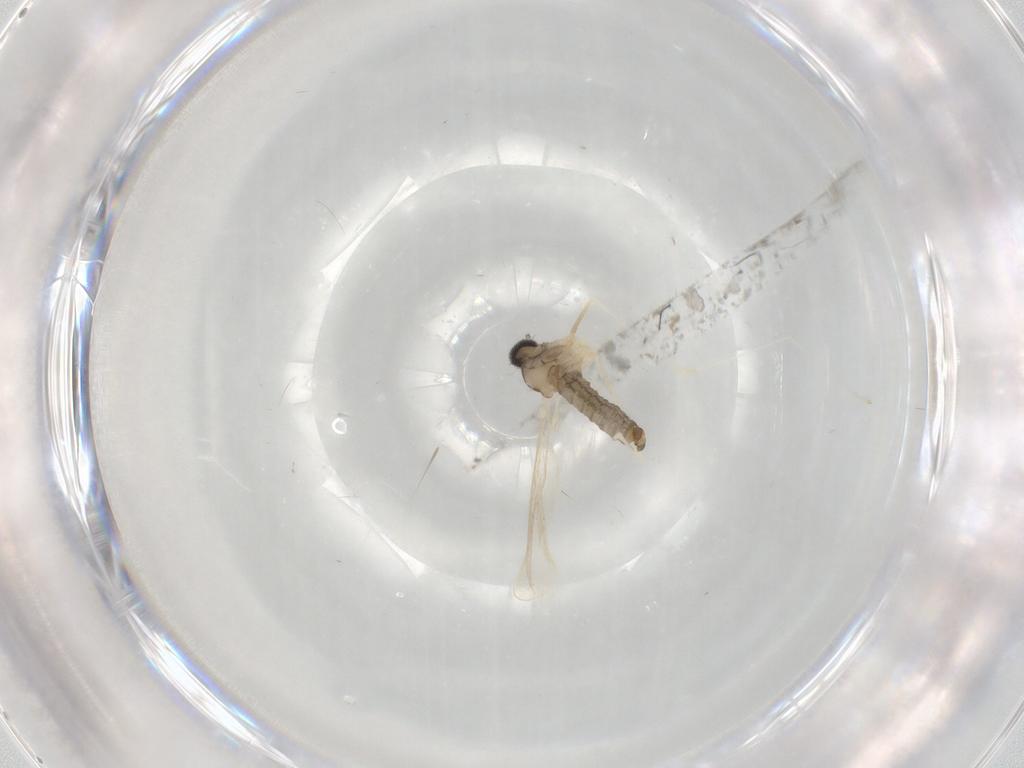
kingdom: Animalia
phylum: Arthropoda
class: Insecta
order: Diptera
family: Cecidomyiidae
